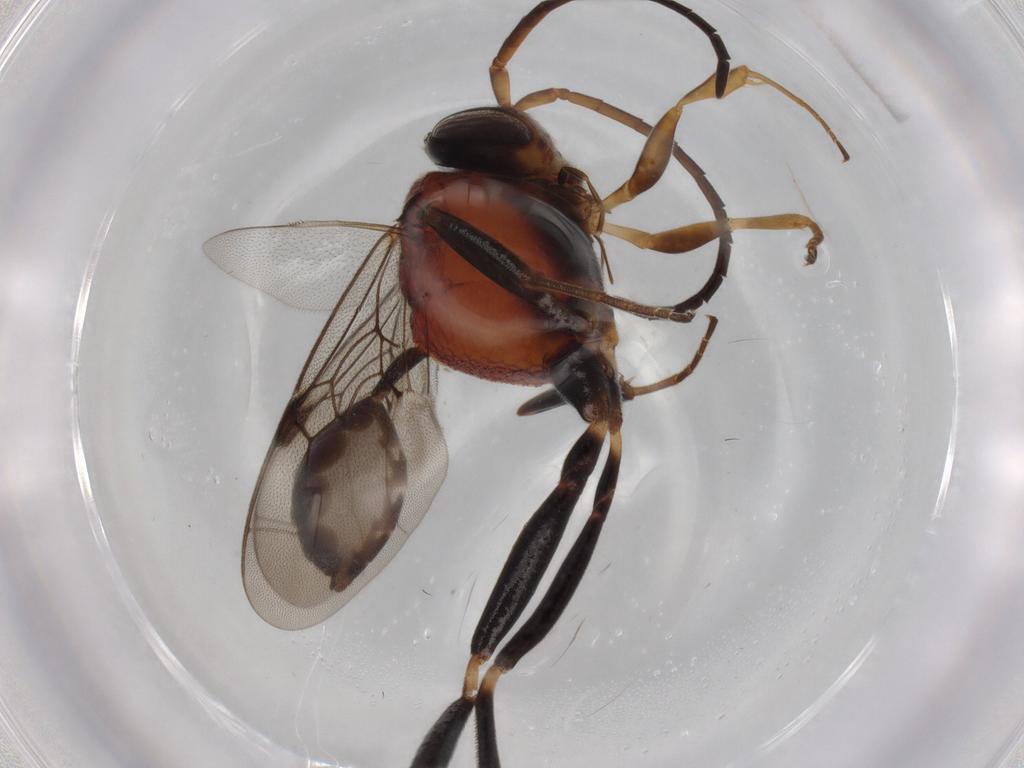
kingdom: Animalia
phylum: Arthropoda
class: Insecta
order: Hymenoptera
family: Evaniidae
